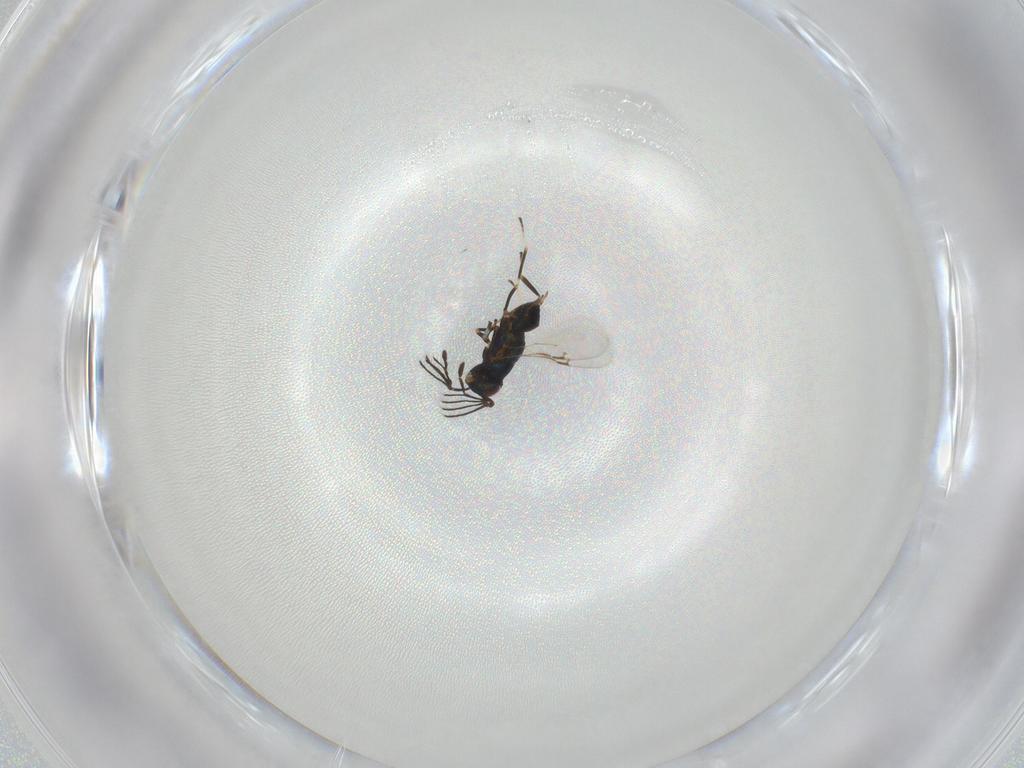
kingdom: Animalia
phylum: Arthropoda
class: Insecta
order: Hymenoptera
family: Encyrtidae
